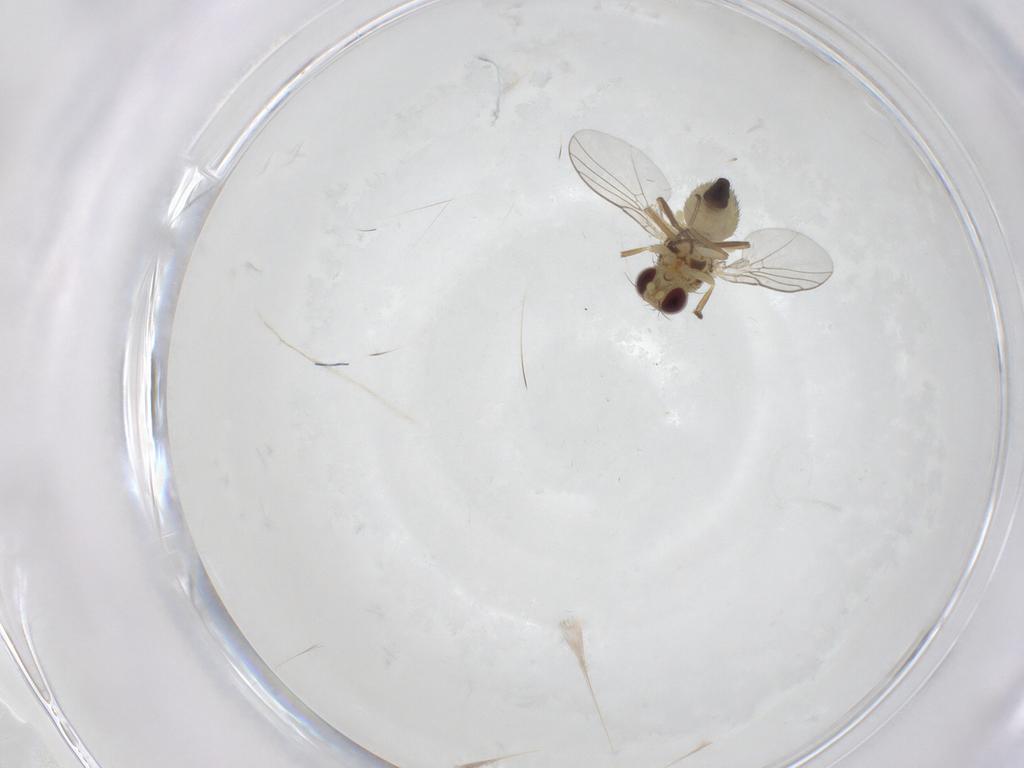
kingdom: Animalia
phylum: Arthropoda
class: Insecta
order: Diptera
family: Agromyzidae
